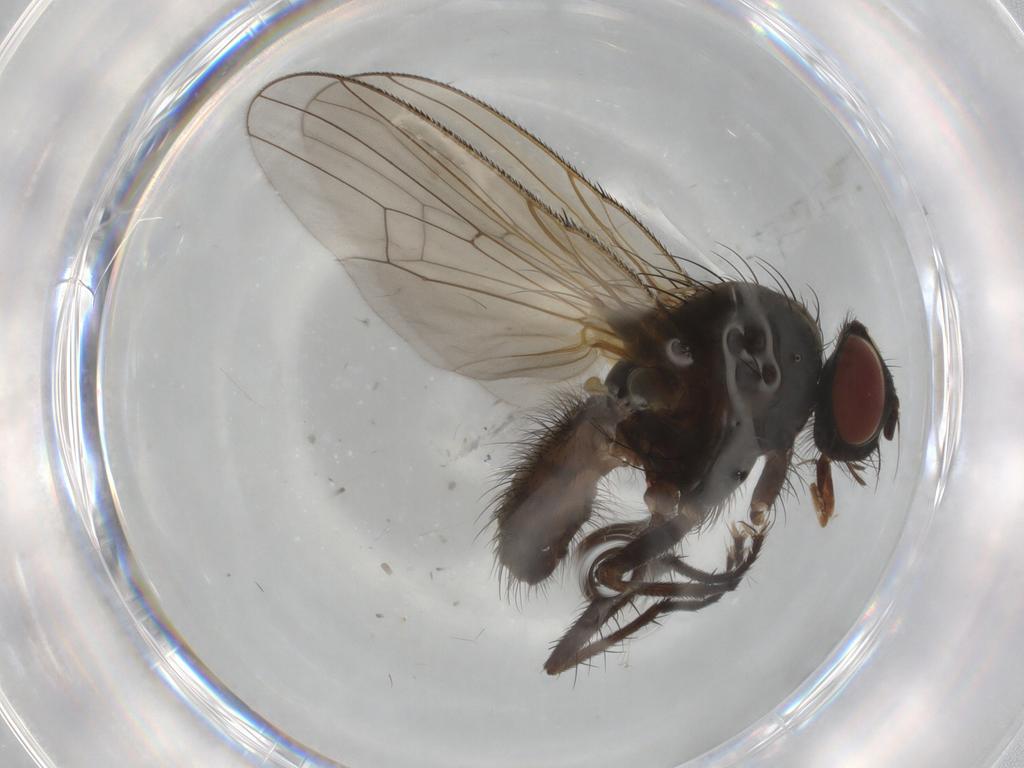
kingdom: Animalia
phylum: Arthropoda
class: Insecta
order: Diptera
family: Anthomyiidae
